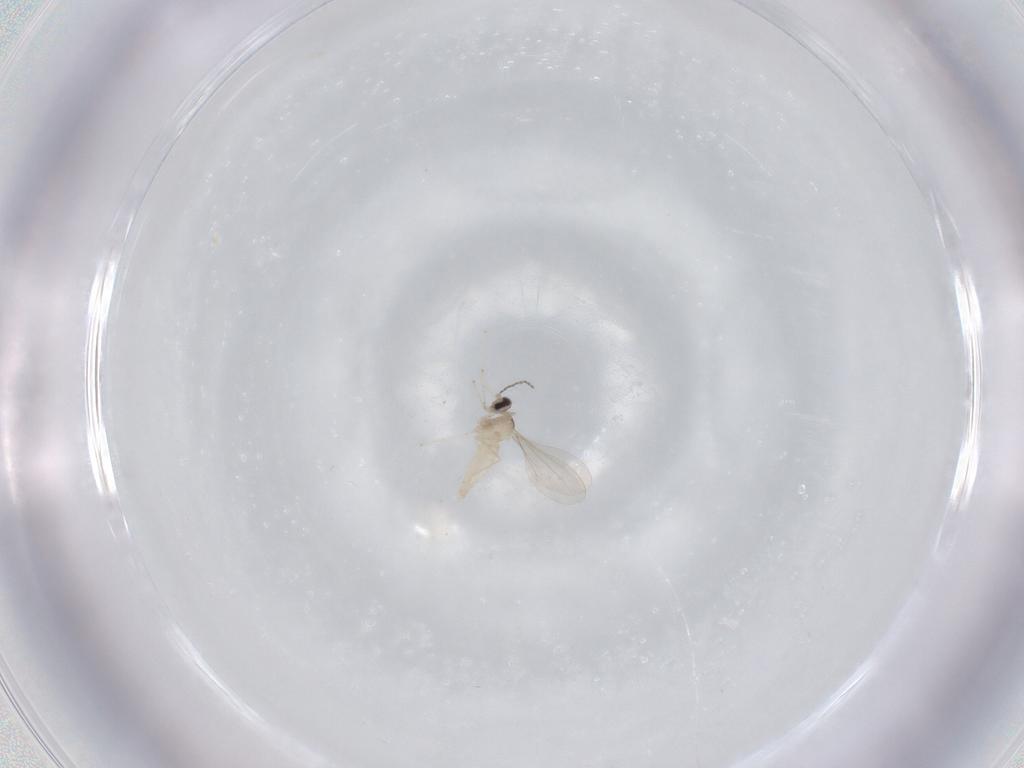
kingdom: Animalia
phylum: Arthropoda
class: Insecta
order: Diptera
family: Cecidomyiidae
